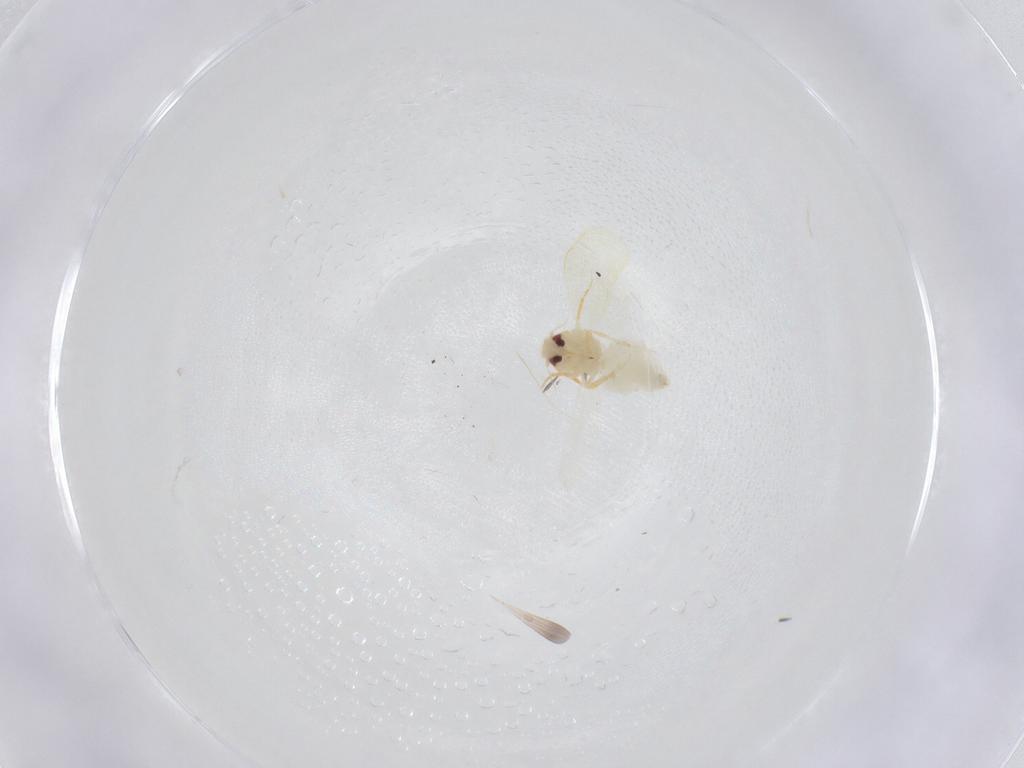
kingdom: Animalia
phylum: Arthropoda
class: Insecta
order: Hemiptera
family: Aleyrodidae
